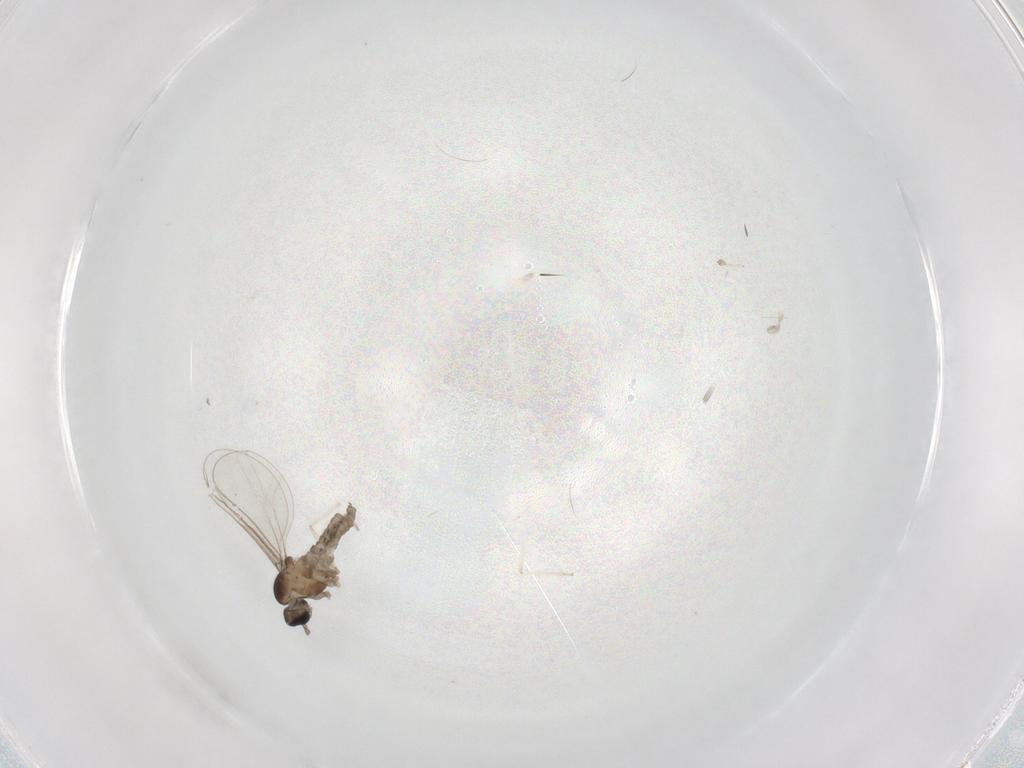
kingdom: Animalia
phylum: Arthropoda
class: Insecta
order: Diptera
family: Cecidomyiidae
